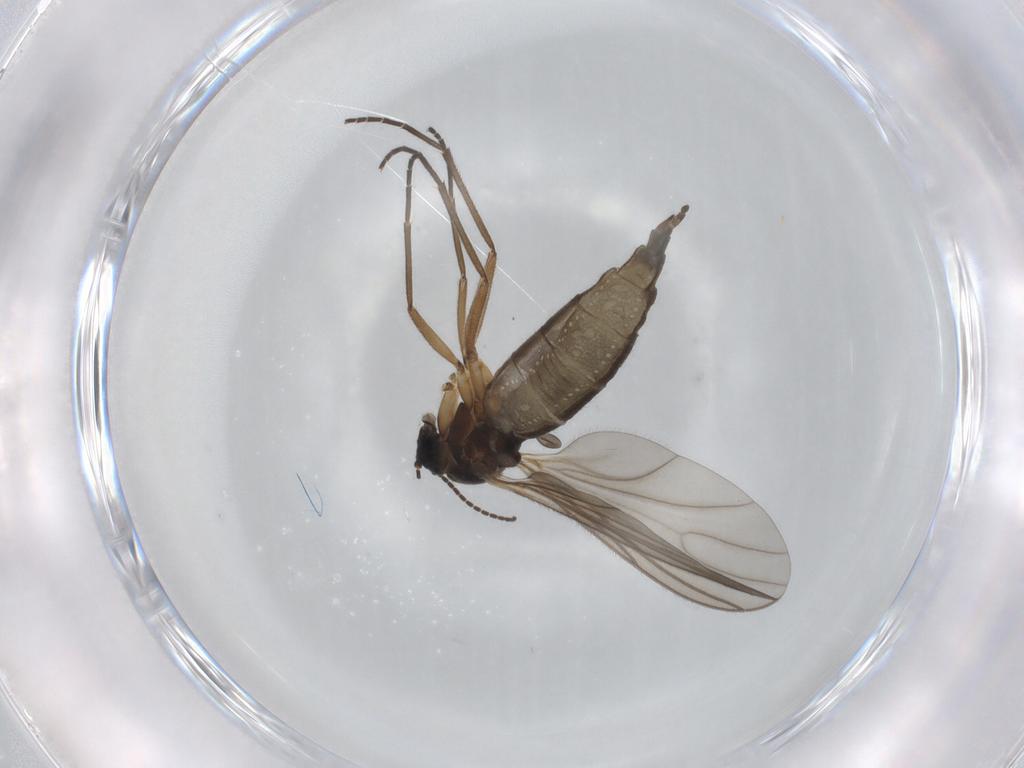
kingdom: Animalia
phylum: Arthropoda
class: Insecta
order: Diptera
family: Sciaridae
